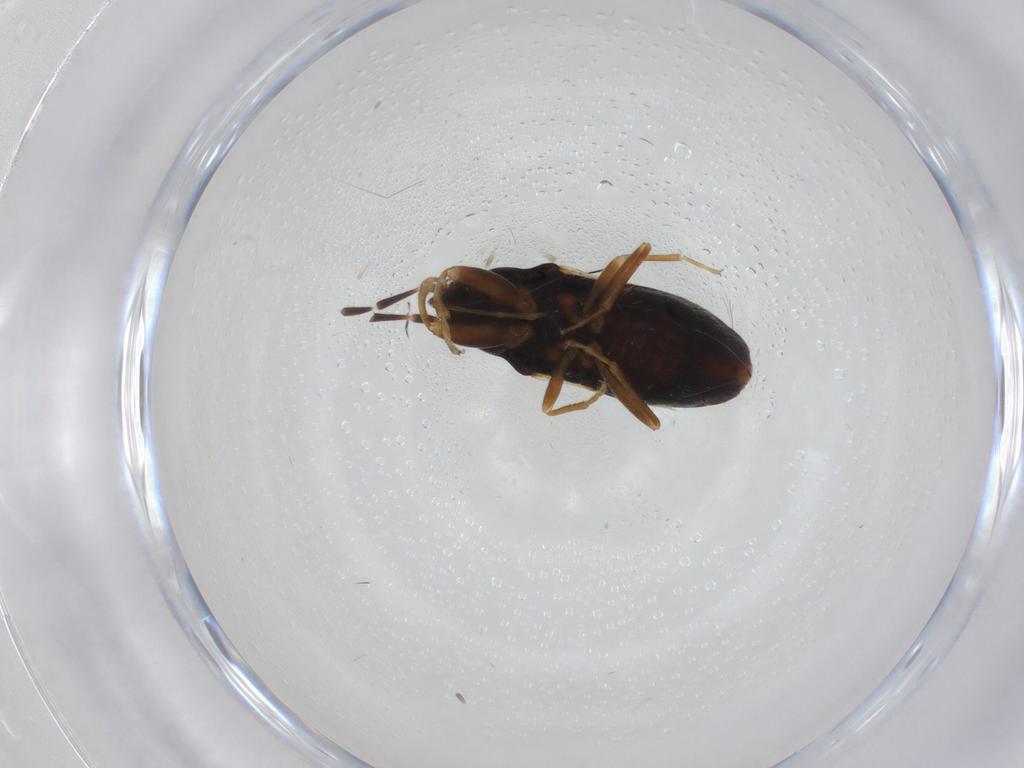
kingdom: Animalia
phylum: Arthropoda
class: Insecta
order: Hemiptera
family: Rhyparochromidae
